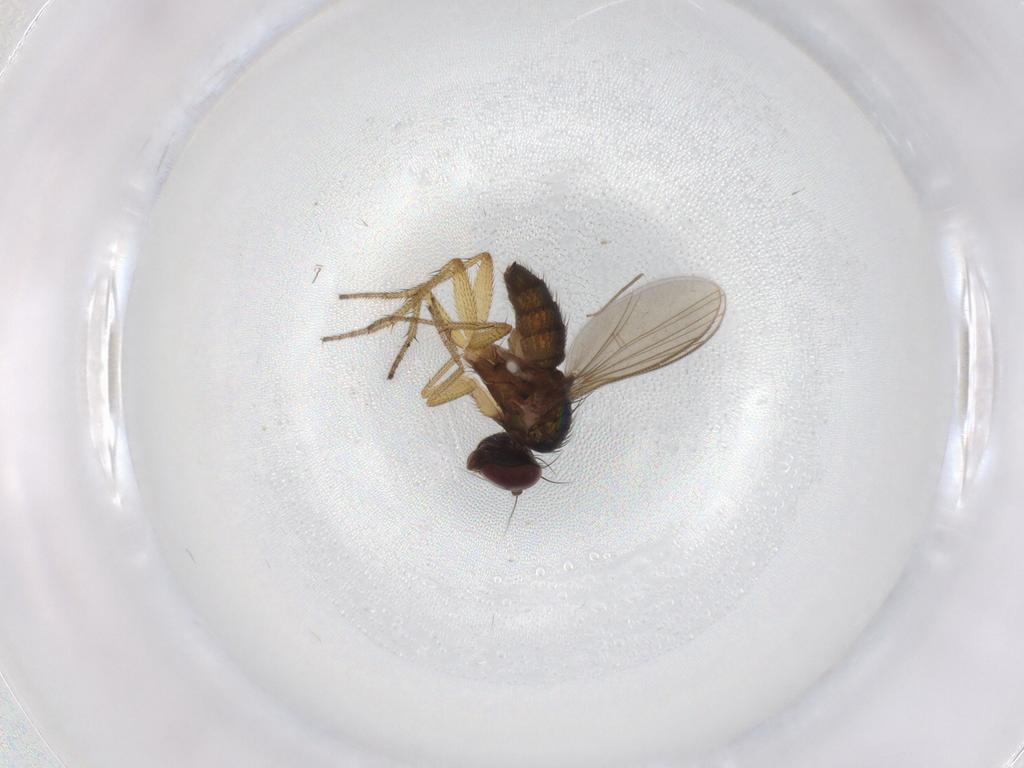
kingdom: Animalia
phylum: Arthropoda
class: Insecta
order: Diptera
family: Dolichopodidae
